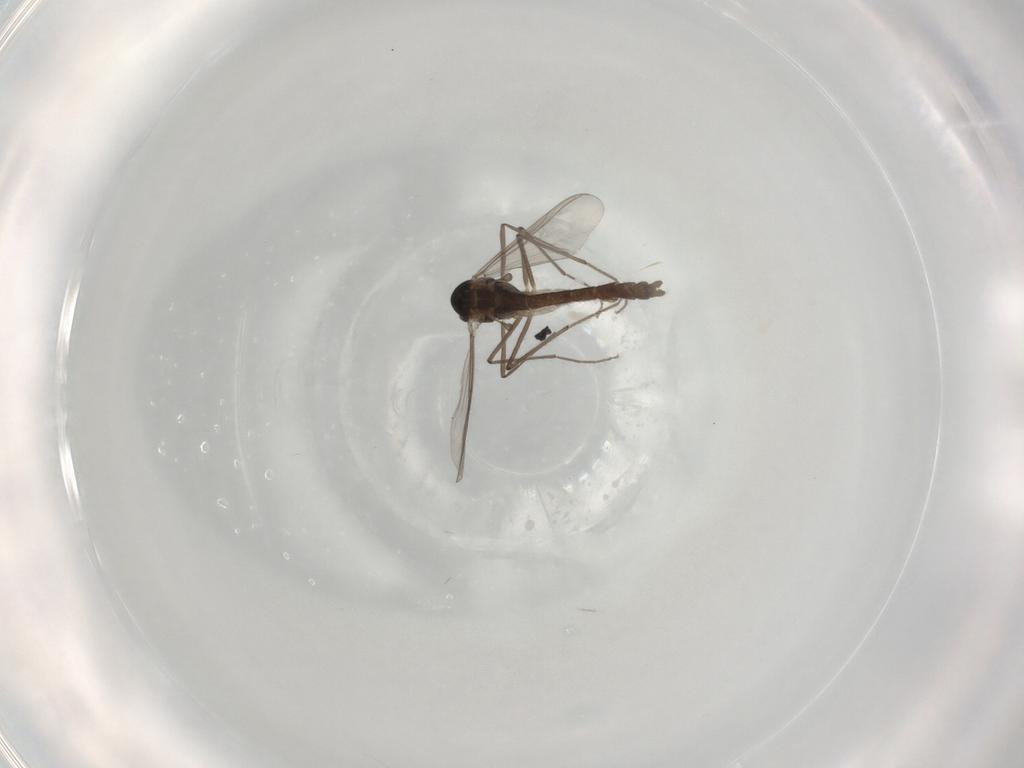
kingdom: Animalia
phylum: Arthropoda
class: Insecta
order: Diptera
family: Chironomidae
